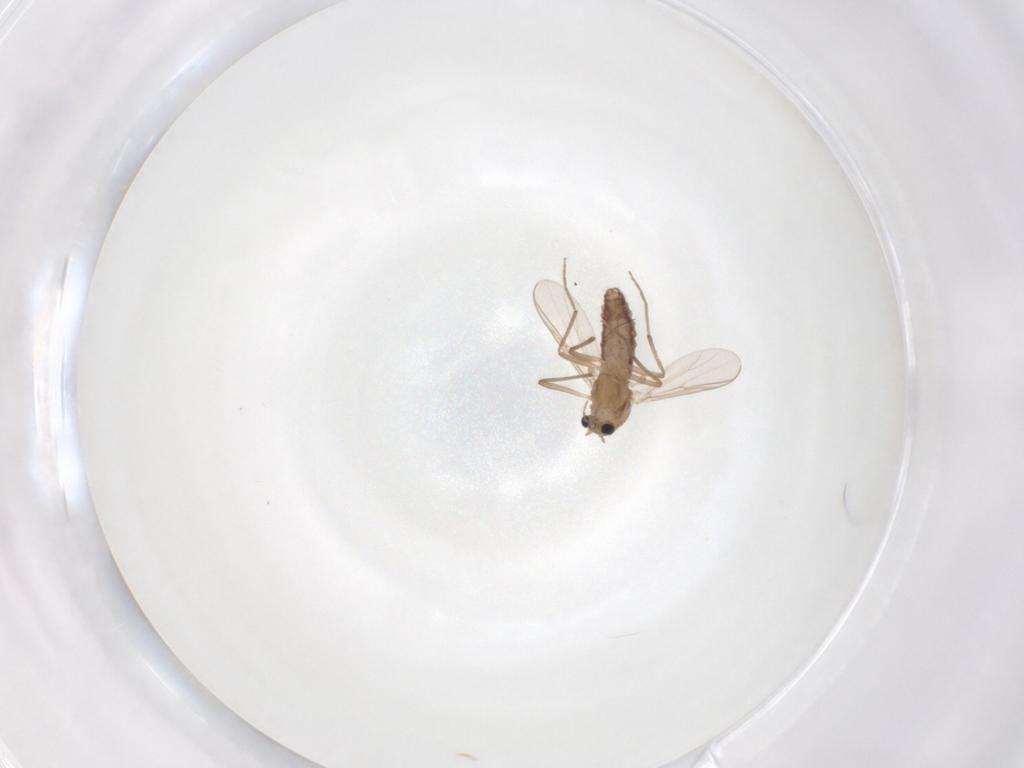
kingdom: Animalia
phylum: Arthropoda
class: Insecta
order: Diptera
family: Chironomidae
